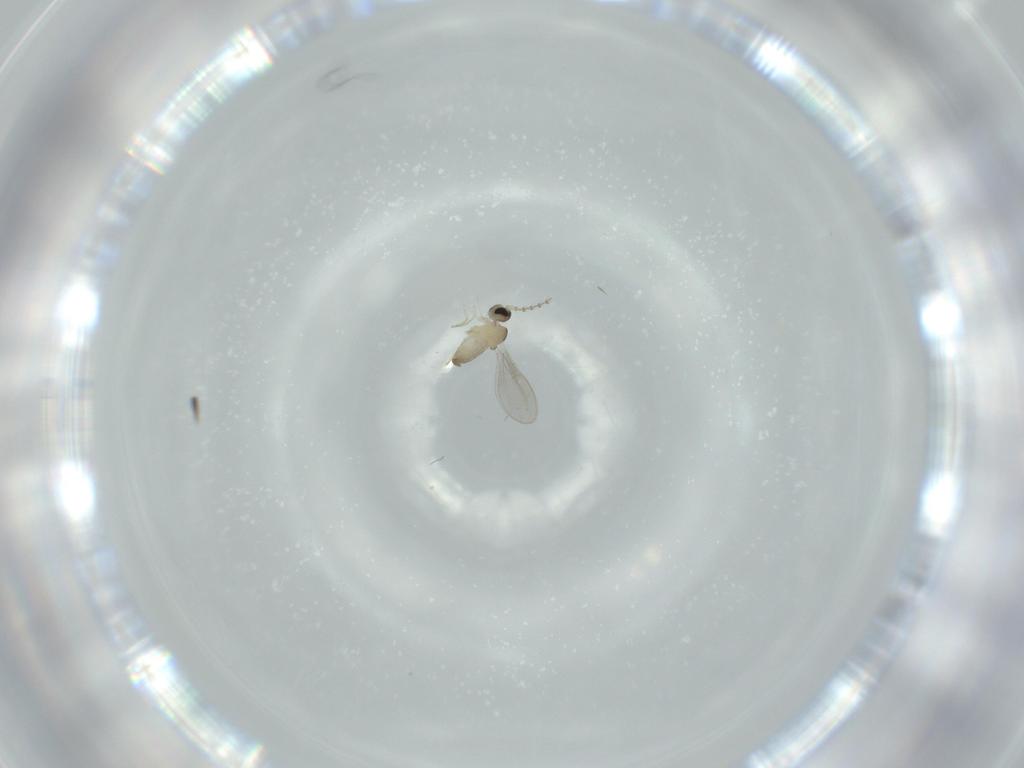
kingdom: Animalia
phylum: Arthropoda
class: Insecta
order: Diptera
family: Cecidomyiidae
